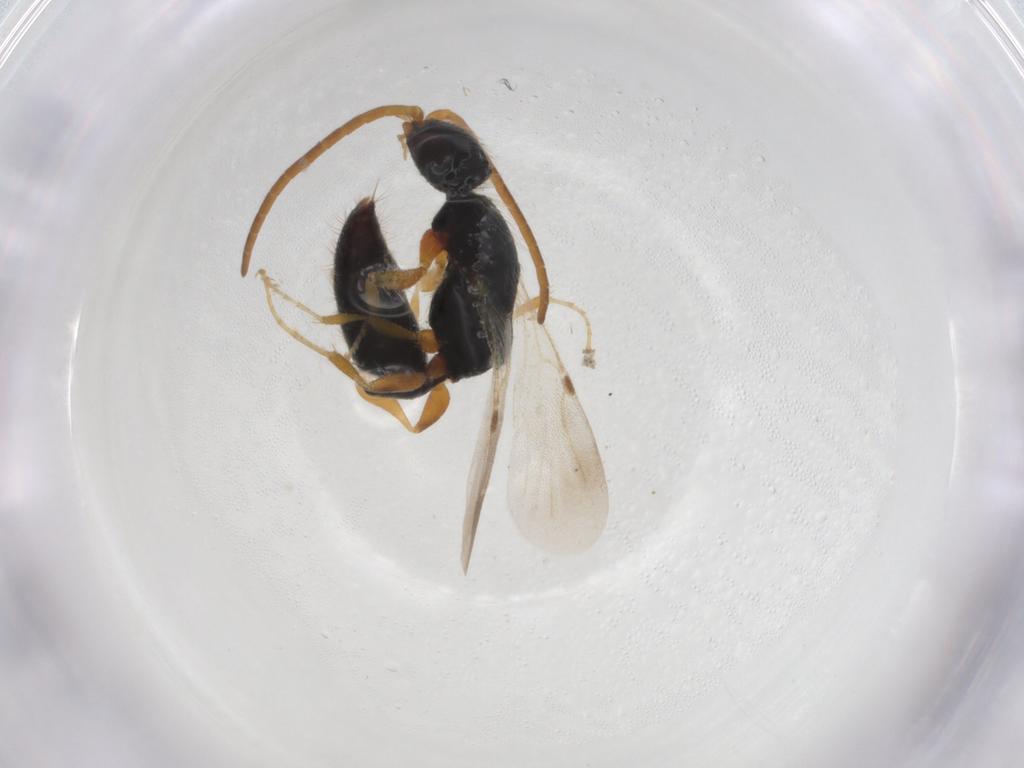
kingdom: Animalia
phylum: Arthropoda
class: Insecta
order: Hymenoptera
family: Bethylidae
